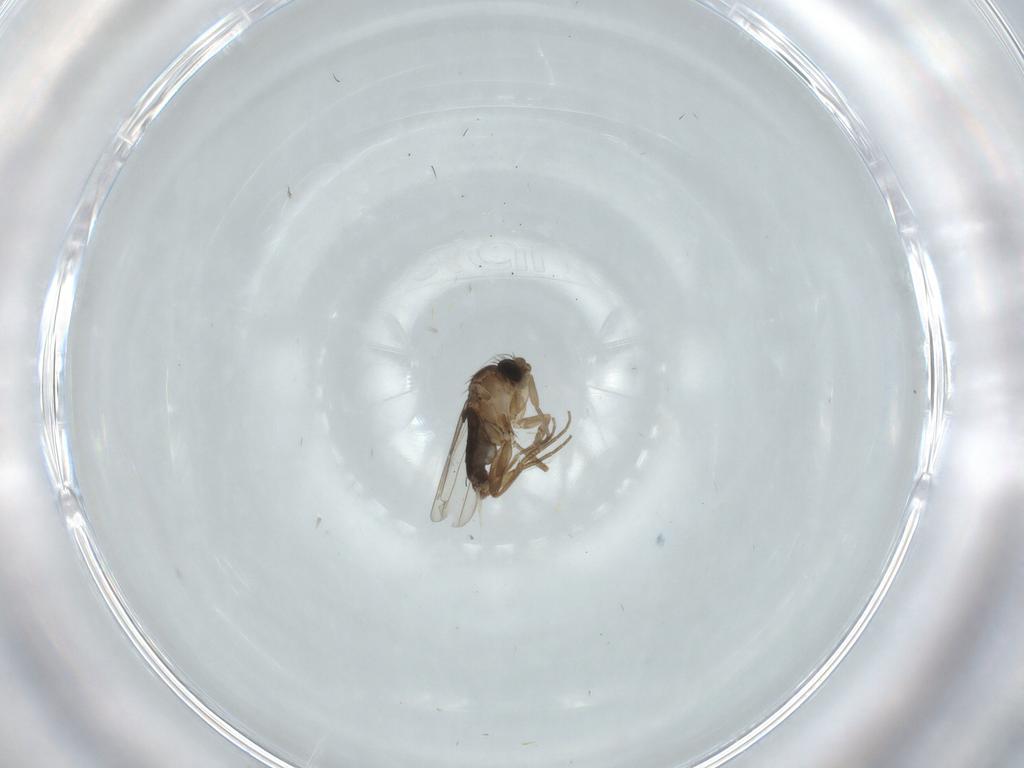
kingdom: Animalia
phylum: Arthropoda
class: Insecta
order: Diptera
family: Phoridae
